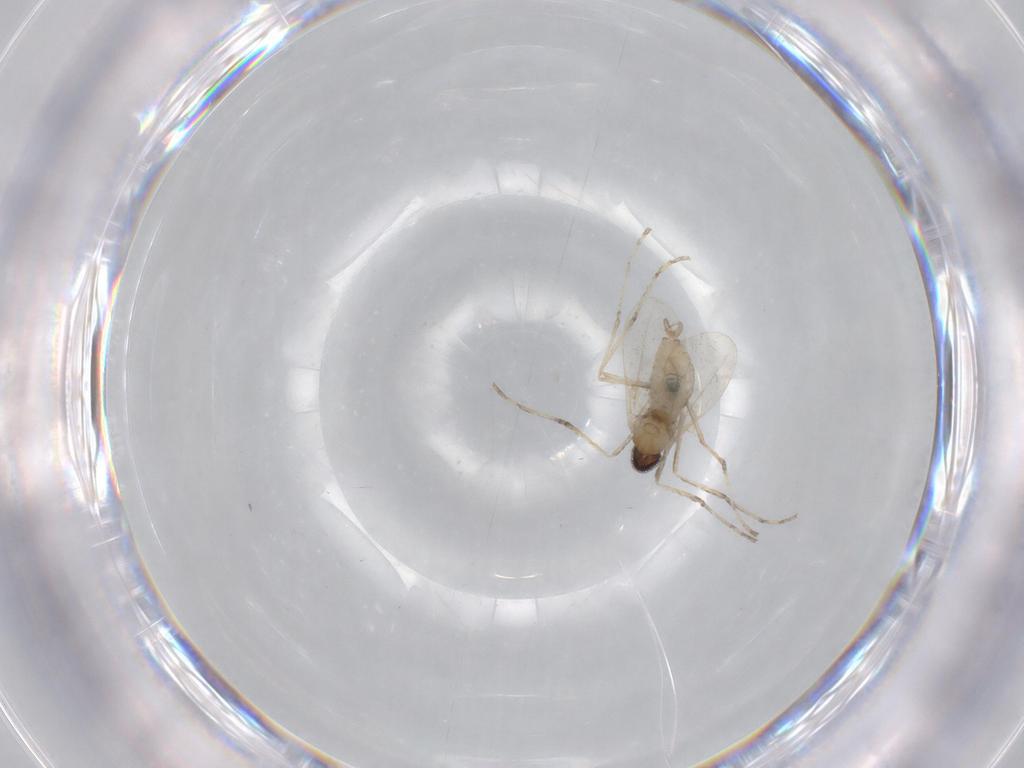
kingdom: Animalia
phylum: Arthropoda
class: Insecta
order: Diptera
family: Cecidomyiidae
